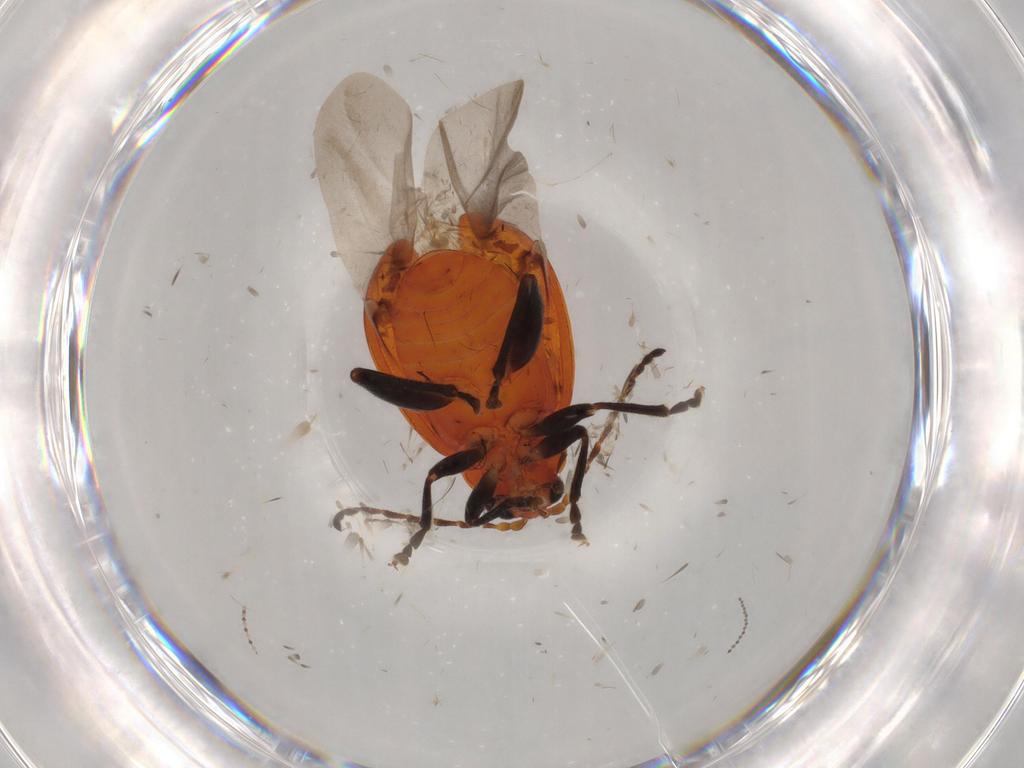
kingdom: Animalia
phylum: Arthropoda
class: Insecta
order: Coleoptera
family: Chrysomelidae
